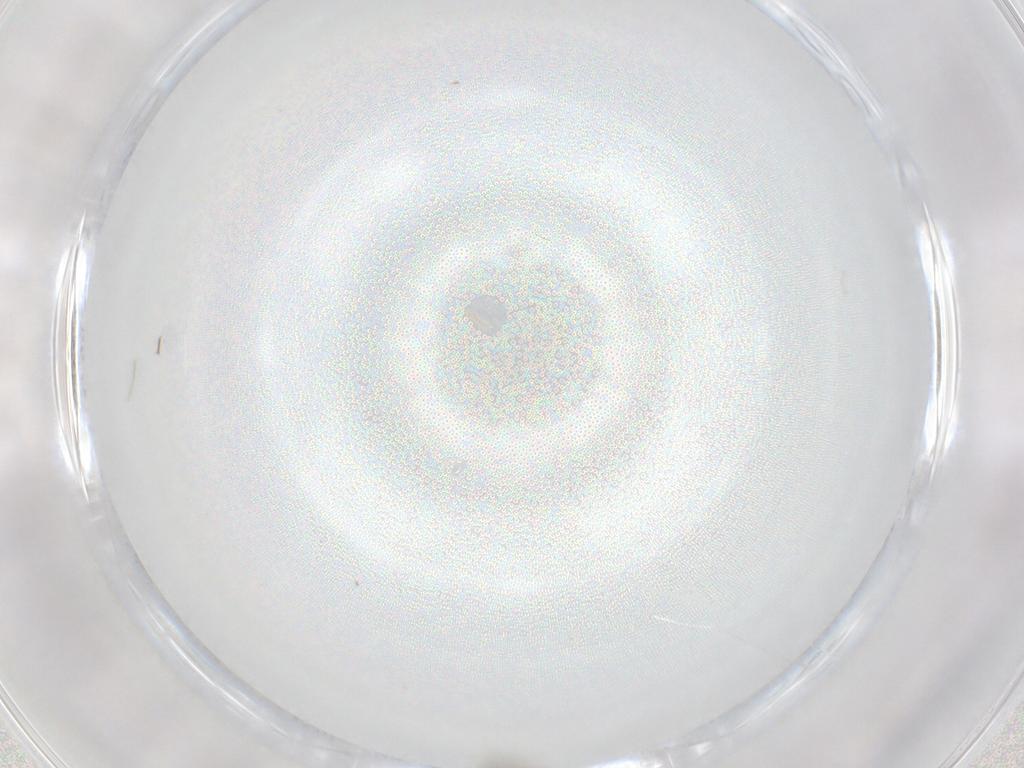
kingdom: Animalia
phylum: Arthropoda
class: Insecta
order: Diptera
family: Cecidomyiidae
